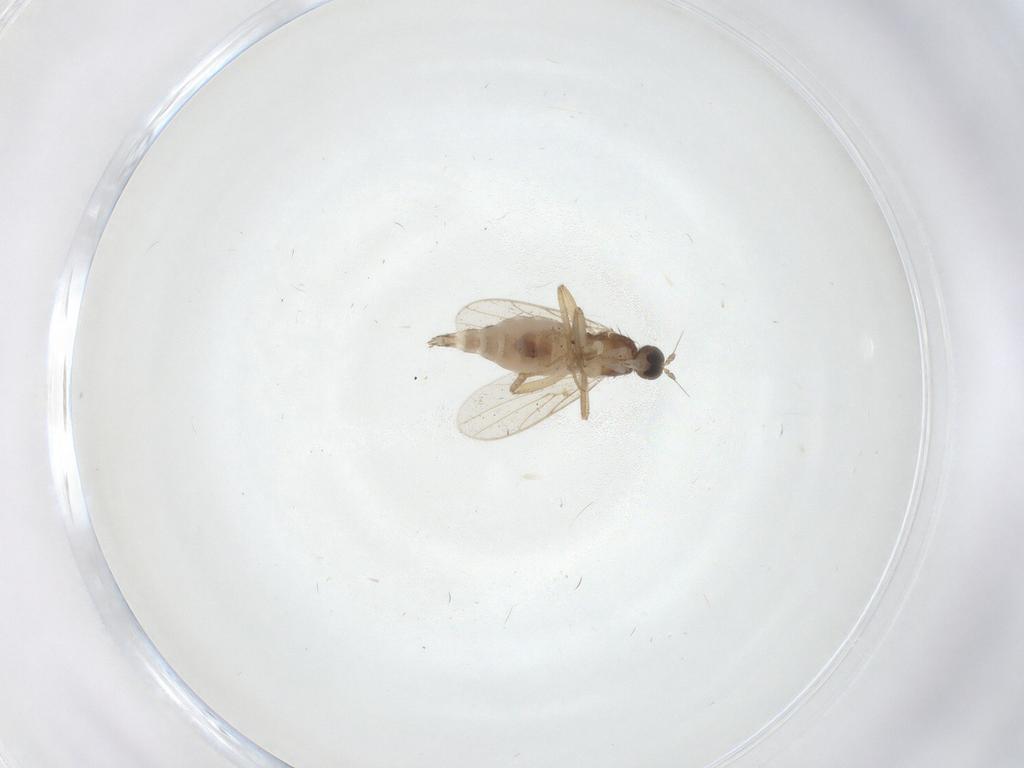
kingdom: Animalia
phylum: Arthropoda
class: Insecta
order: Diptera
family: Hybotidae
